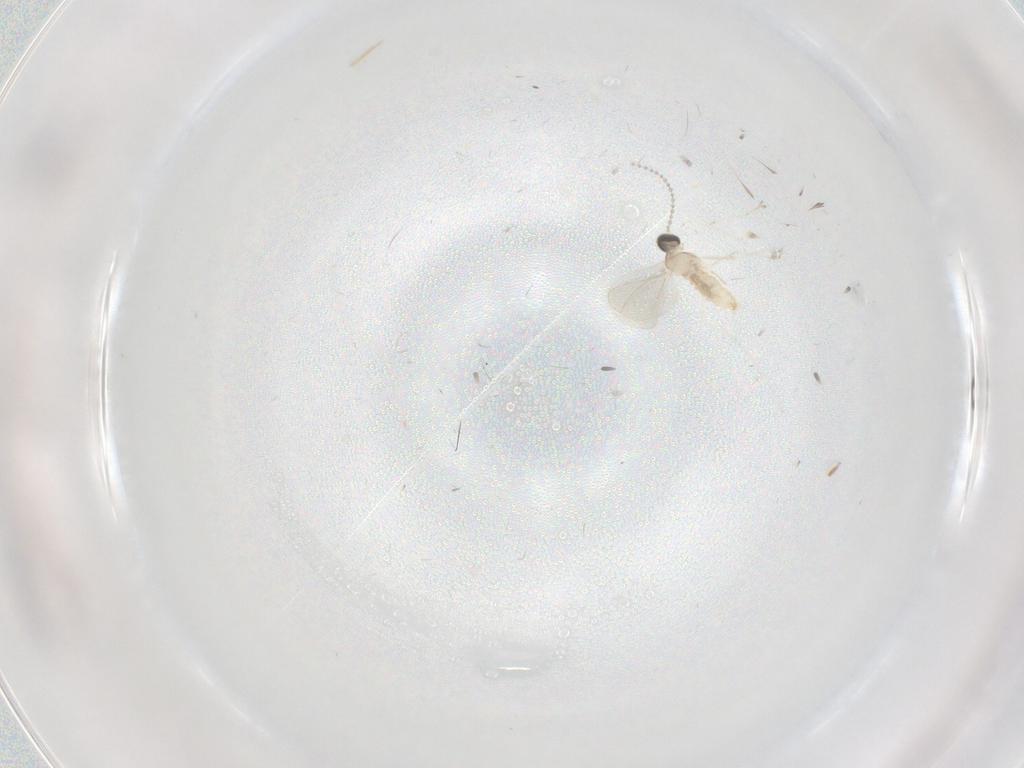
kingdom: Animalia
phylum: Arthropoda
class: Insecta
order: Diptera
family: Cecidomyiidae
